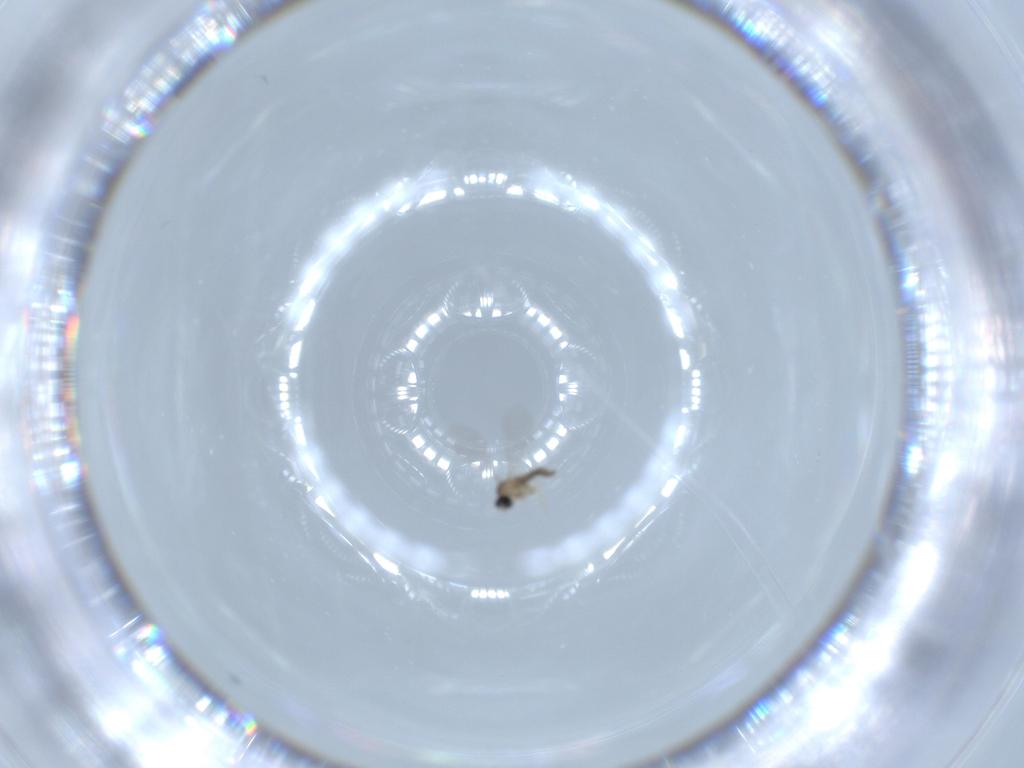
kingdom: Animalia
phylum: Arthropoda
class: Insecta
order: Diptera
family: Cecidomyiidae
